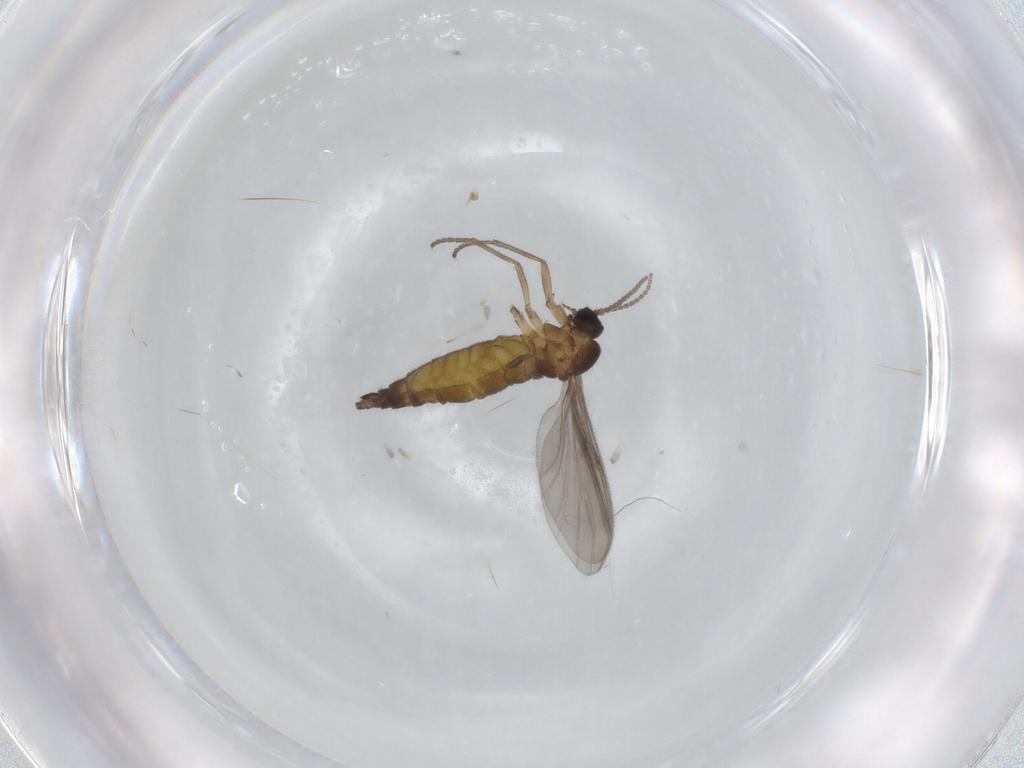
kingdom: Animalia
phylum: Arthropoda
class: Insecta
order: Diptera
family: Sciaridae
